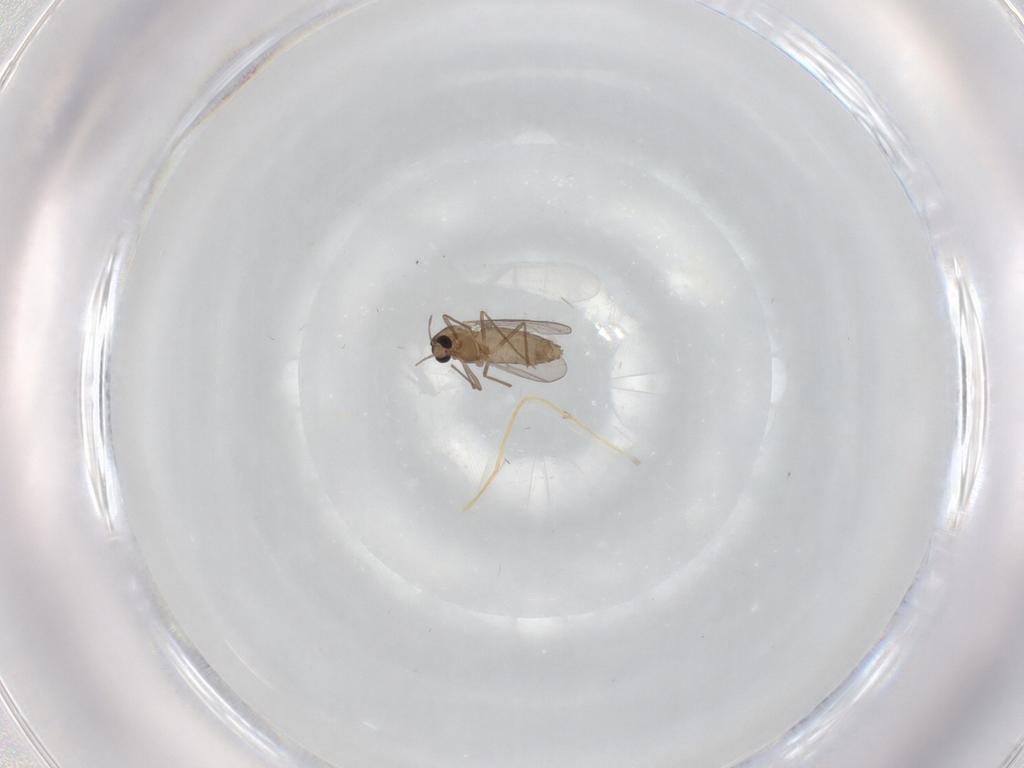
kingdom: Animalia
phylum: Arthropoda
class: Insecta
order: Diptera
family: Chironomidae
